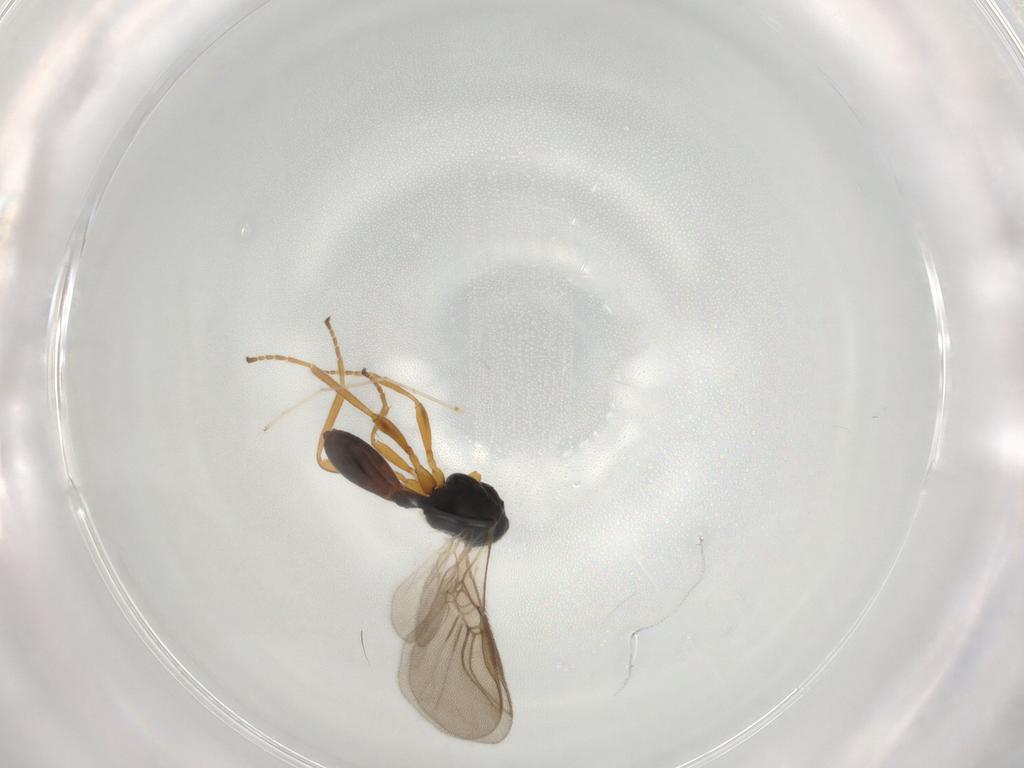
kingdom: Animalia
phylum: Arthropoda
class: Insecta
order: Hymenoptera
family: Braconidae
